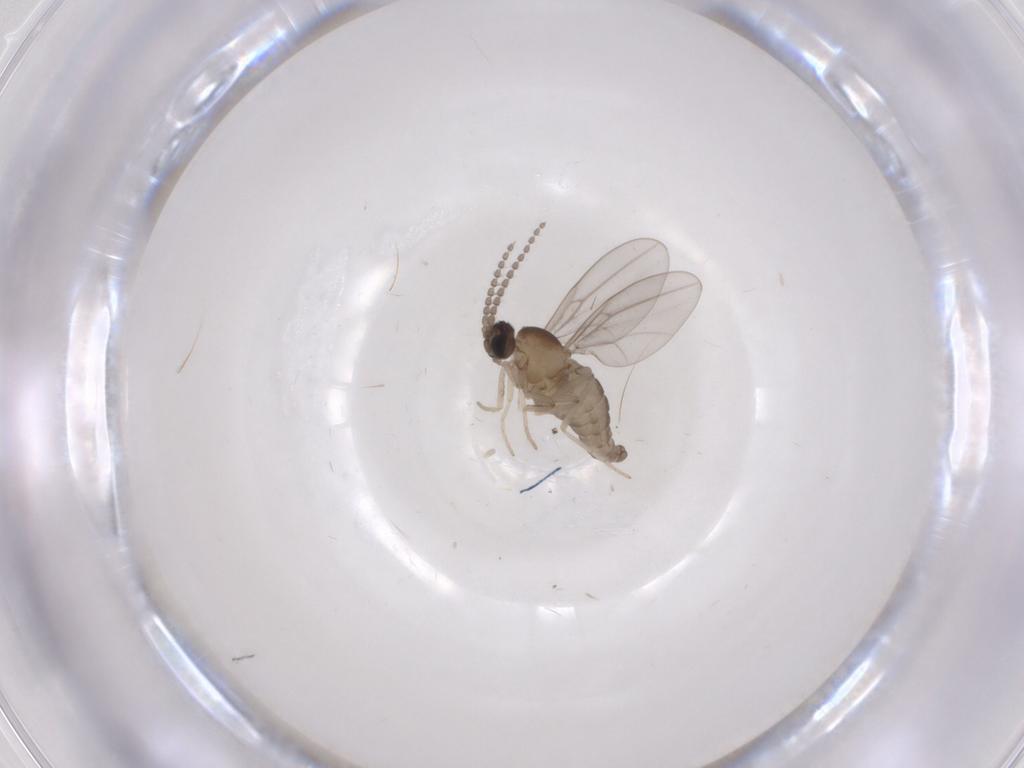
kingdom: Animalia
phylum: Arthropoda
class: Insecta
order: Diptera
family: Cecidomyiidae
